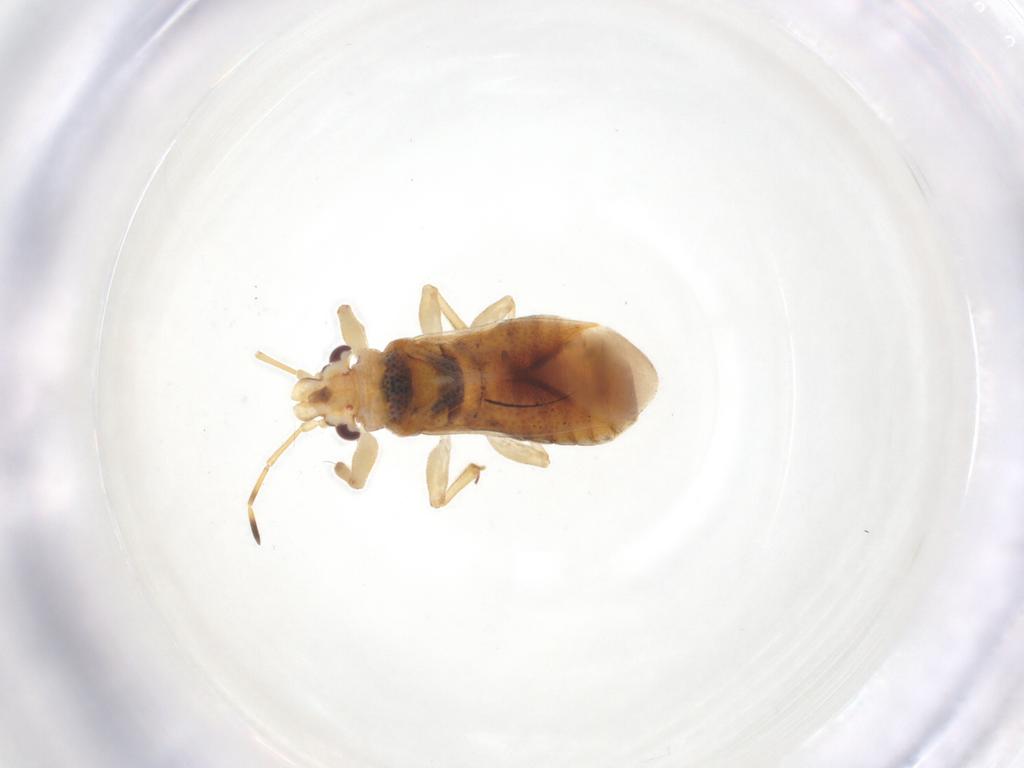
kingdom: Animalia
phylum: Arthropoda
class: Insecta
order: Hemiptera
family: Thaumastocoridae
